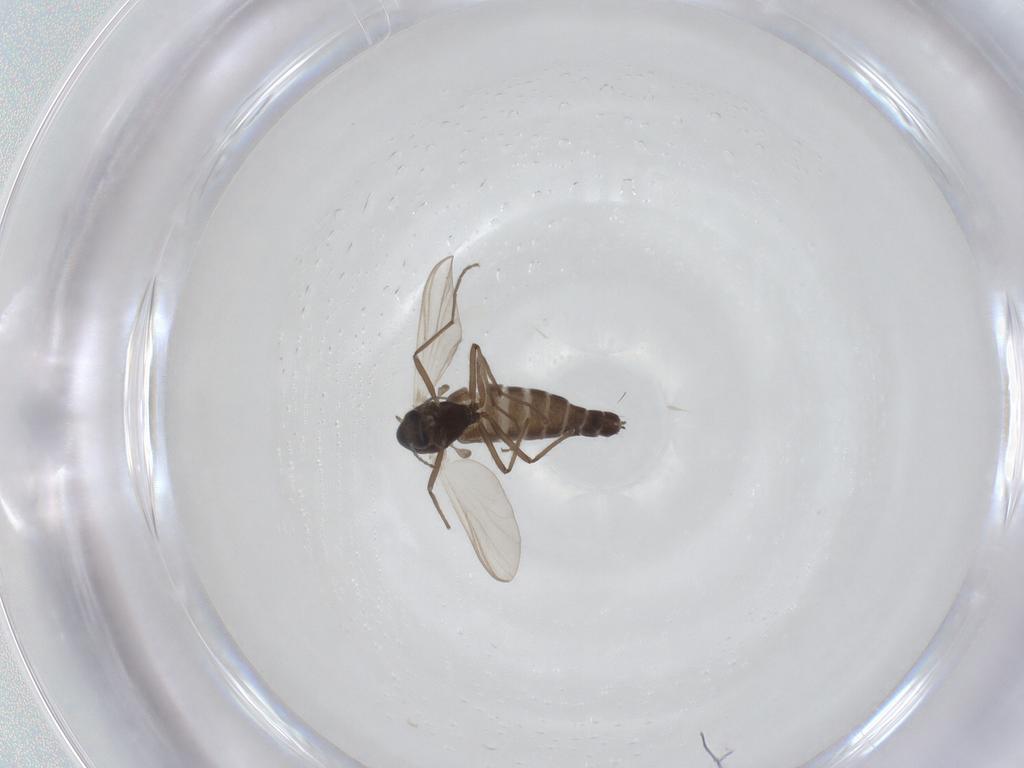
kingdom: Animalia
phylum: Arthropoda
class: Insecta
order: Diptera
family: Chironomidae
